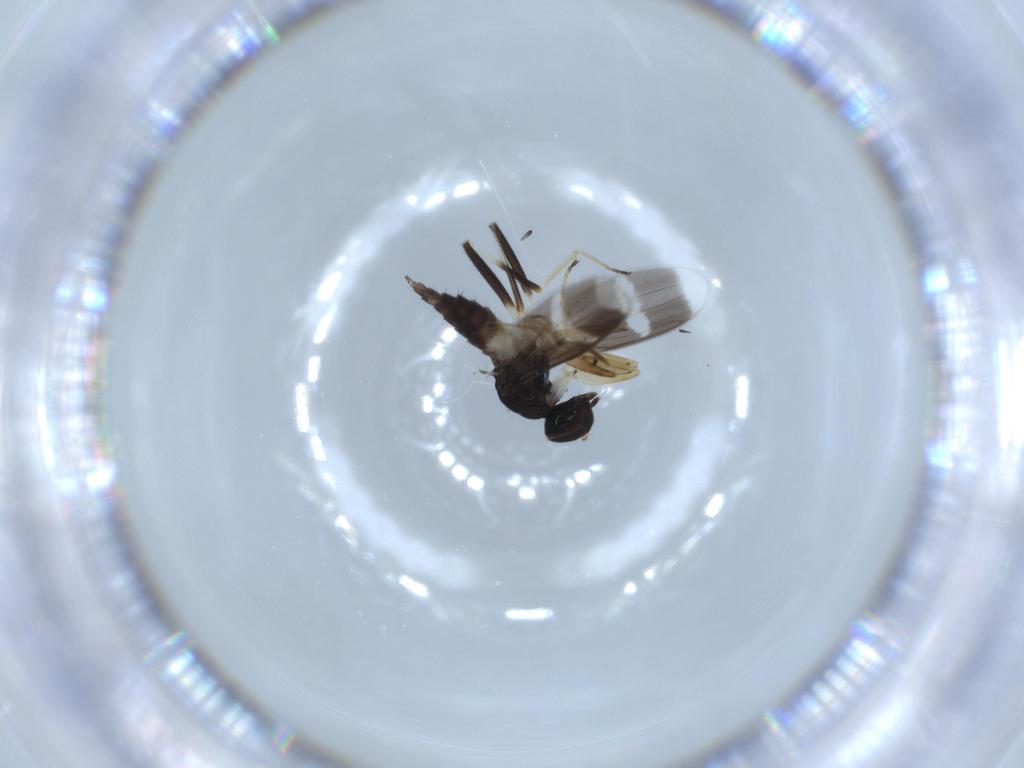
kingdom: Animalia
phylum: Arthropoda
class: Insecta
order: Diptera
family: Hybotidae
